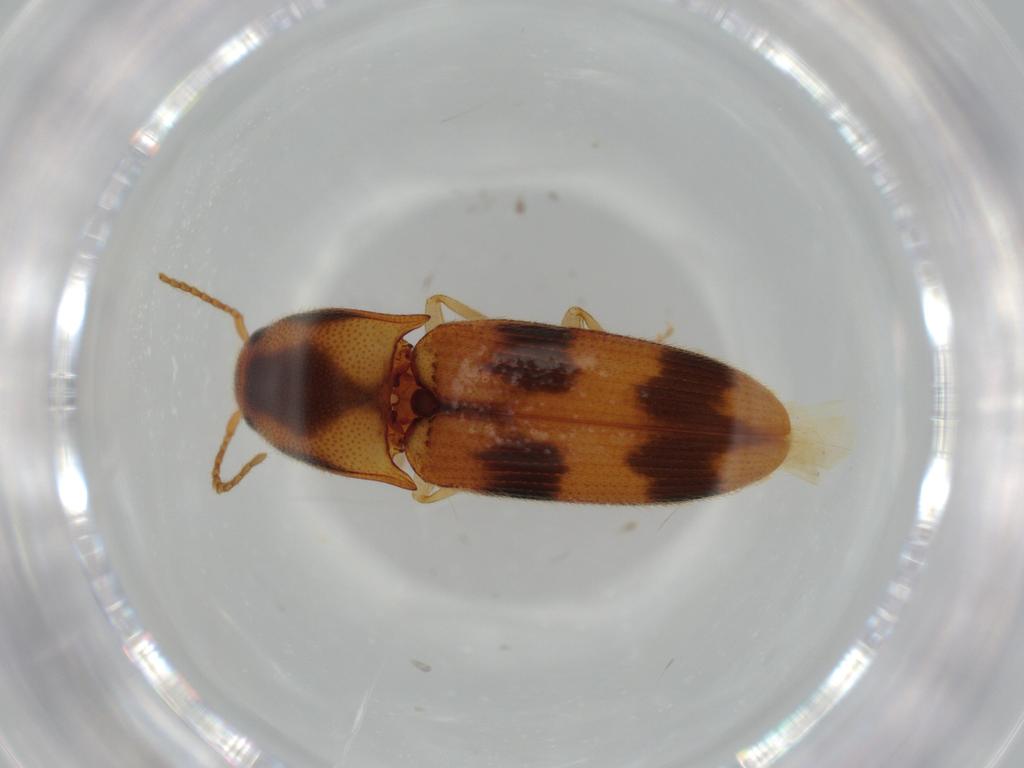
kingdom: Animalia
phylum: Arthropoda
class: Insecta
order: Coleoptera
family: Elateridae
